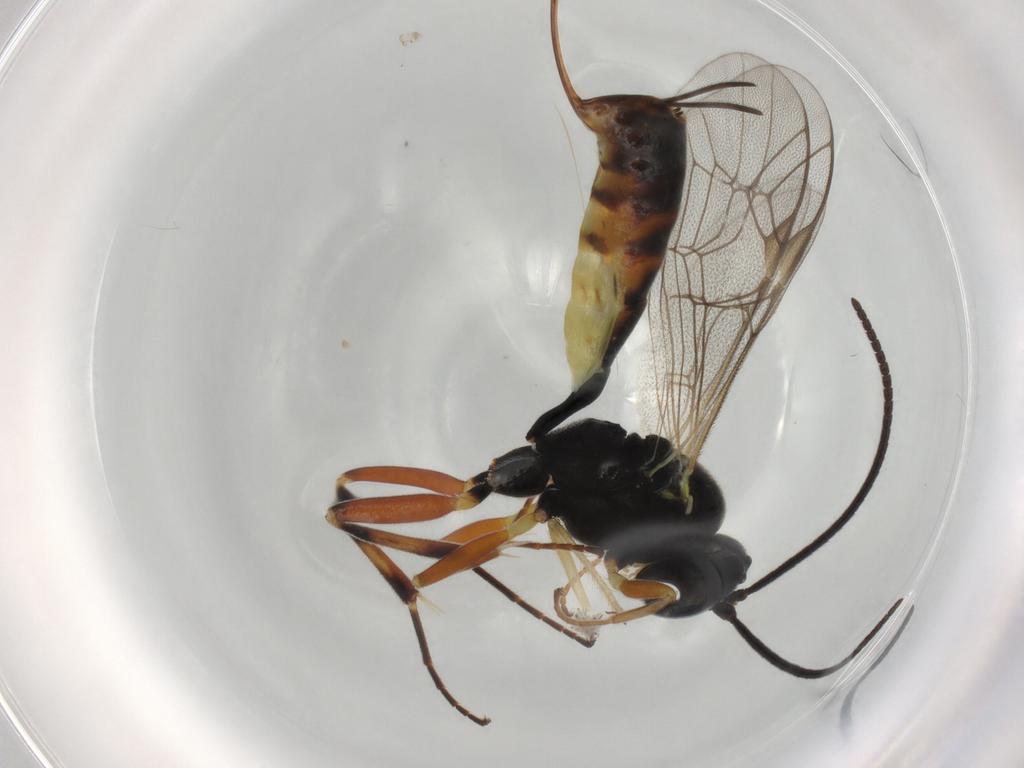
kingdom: Animalia
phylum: Arthropoda
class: Insecta
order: Hymenoptera
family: Ichneumonidae
